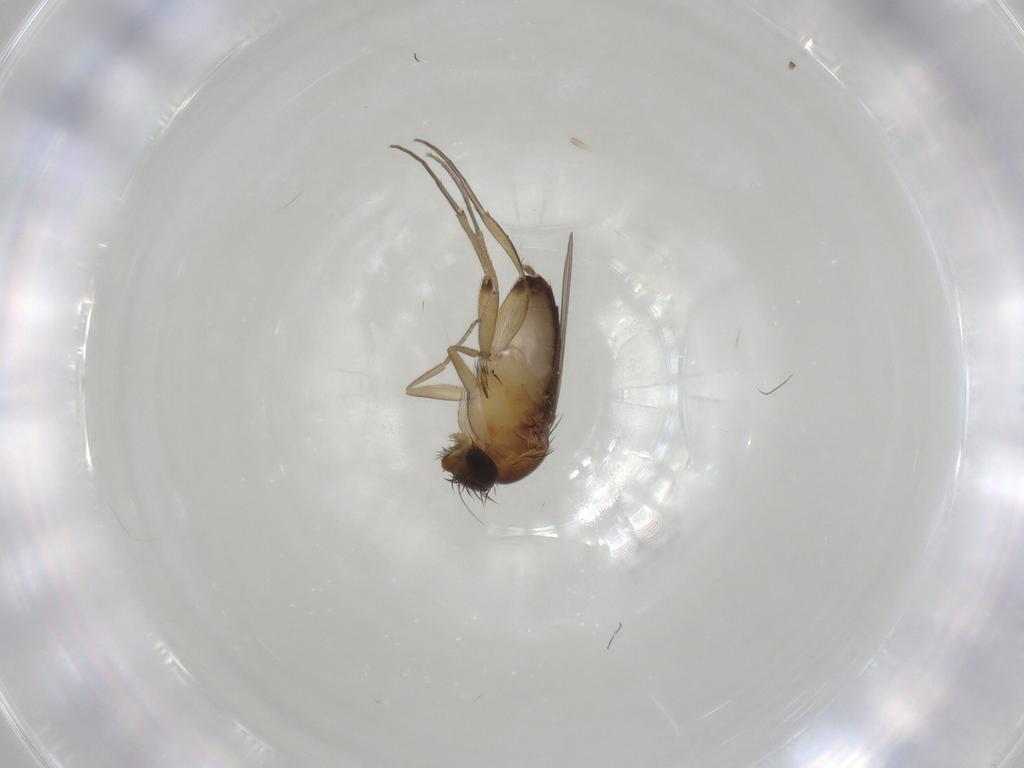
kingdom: Animalia
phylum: Arthropoda
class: Insecta
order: Diptera
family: Phoridae
